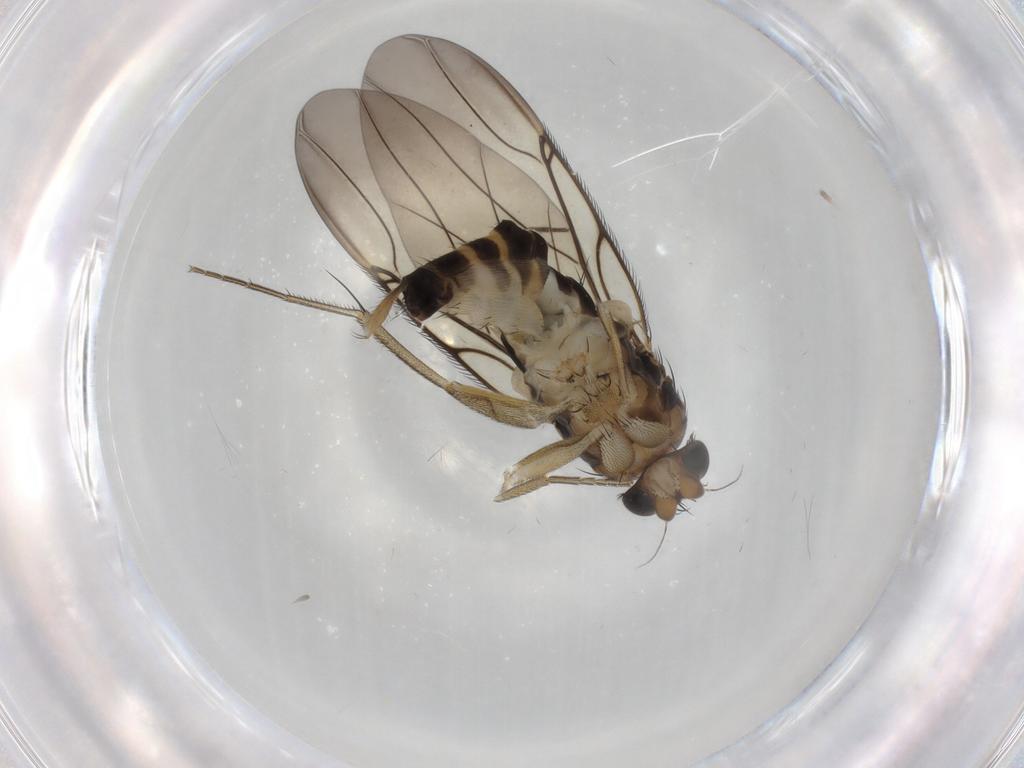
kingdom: Animalia
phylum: Arthropoda
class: Insecta
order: Diptera
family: Phoridae
